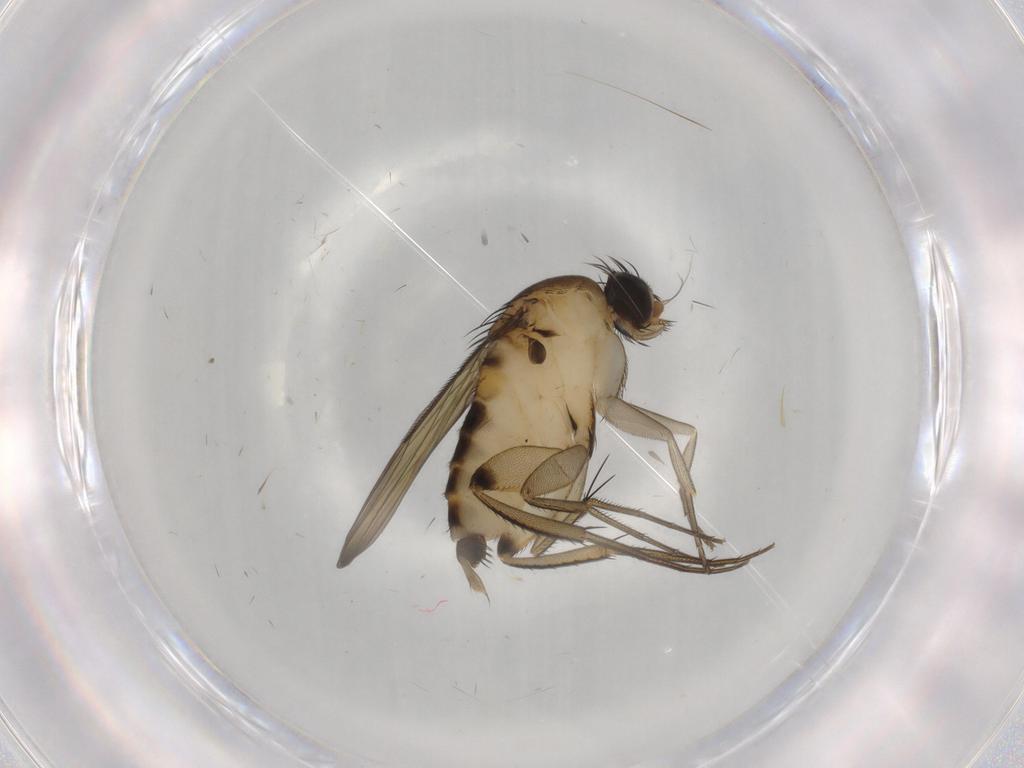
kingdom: Animalia
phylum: Arthropoda
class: Insecta
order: Diptera
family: Phoridae
